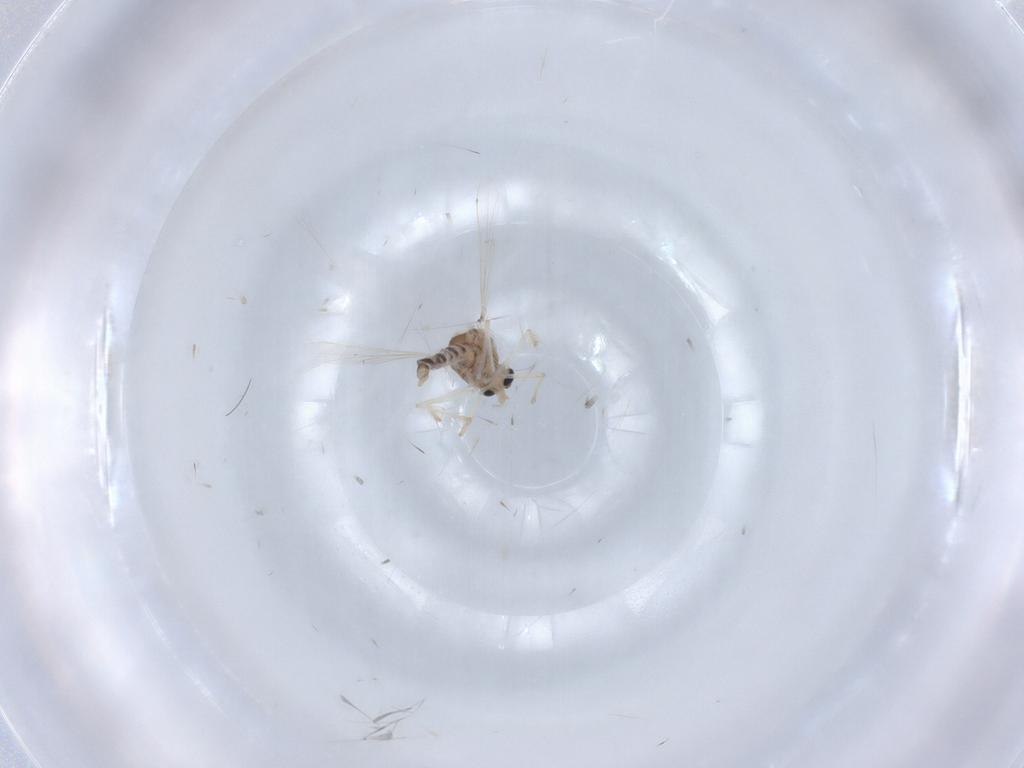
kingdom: Animalia
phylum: Arthropoda
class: Insecta
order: Diptera
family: Chironomidae
